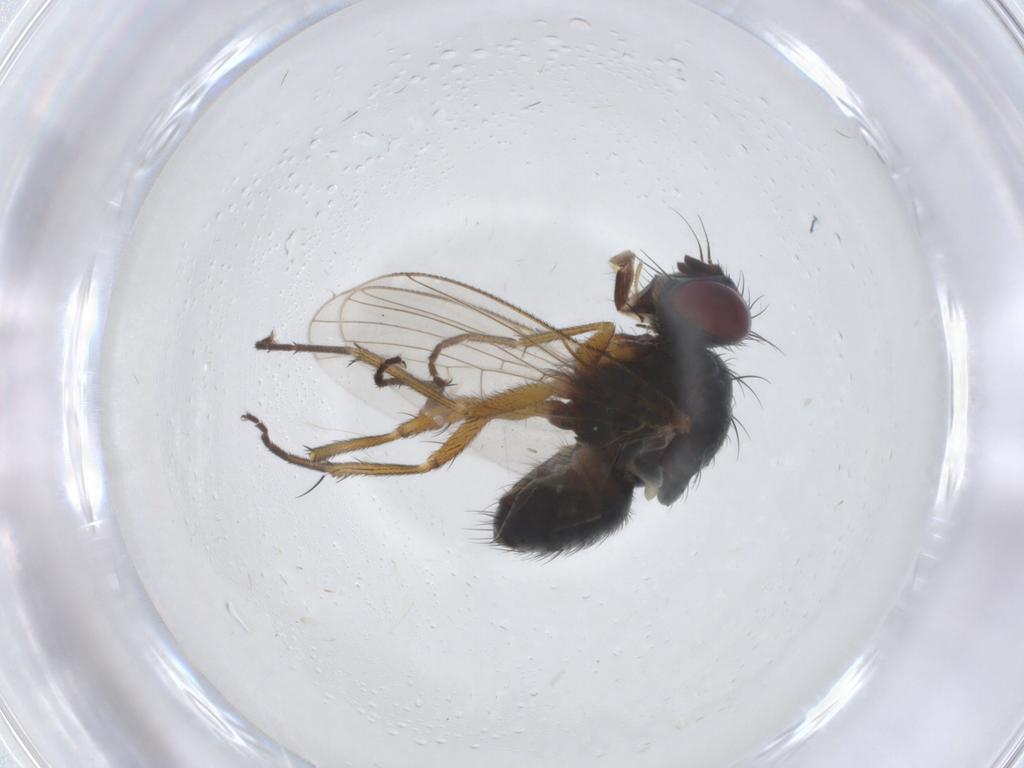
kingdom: Animalia
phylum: Arthropoda
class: Insecta
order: Diptera
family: Muscidae
